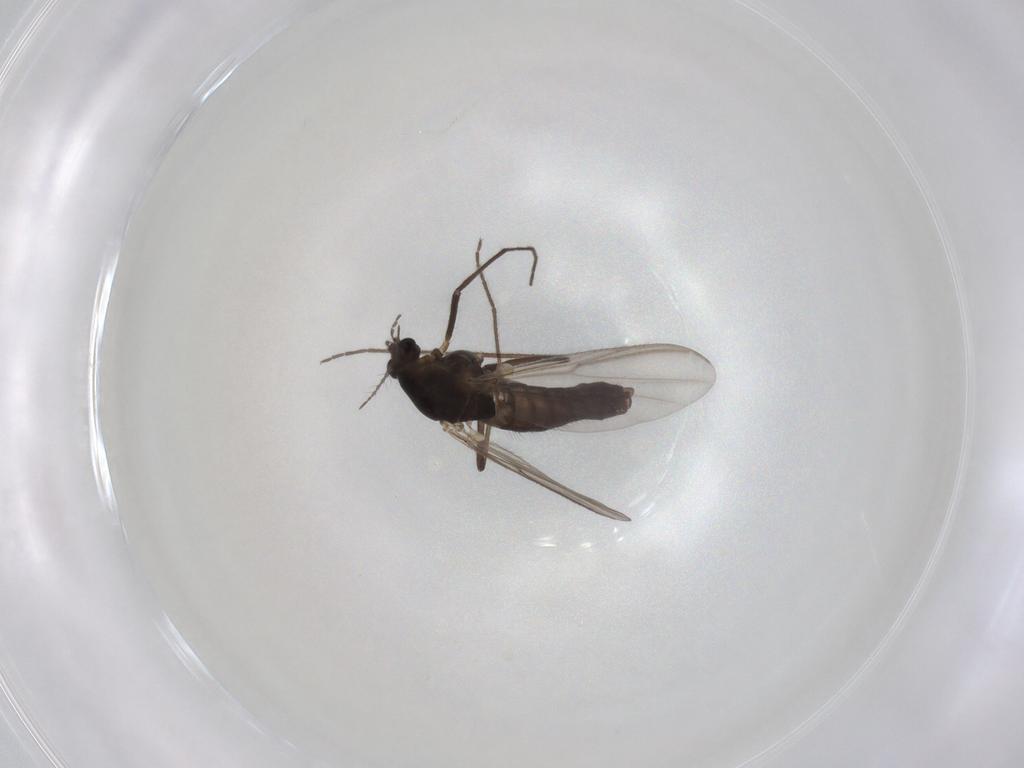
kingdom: Animalia
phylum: Arthropoda
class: Insecta
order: Diptera
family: Chironomidae
